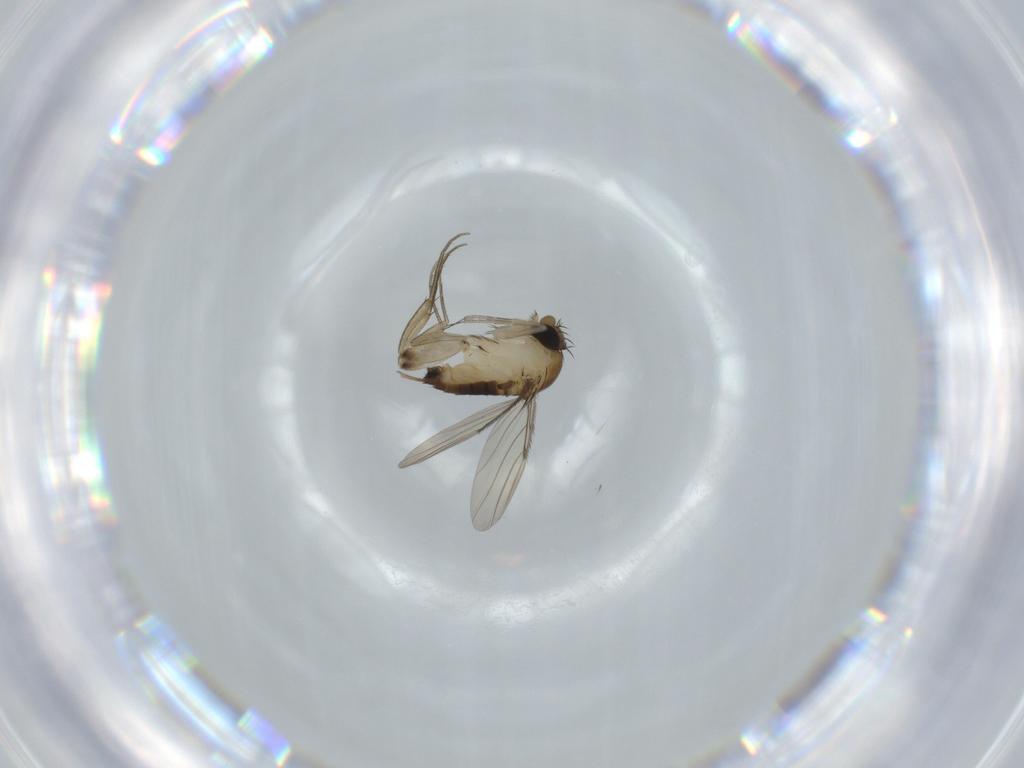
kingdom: Animalia
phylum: Arthropoda
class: Insecta
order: Diptera
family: Phoridae
